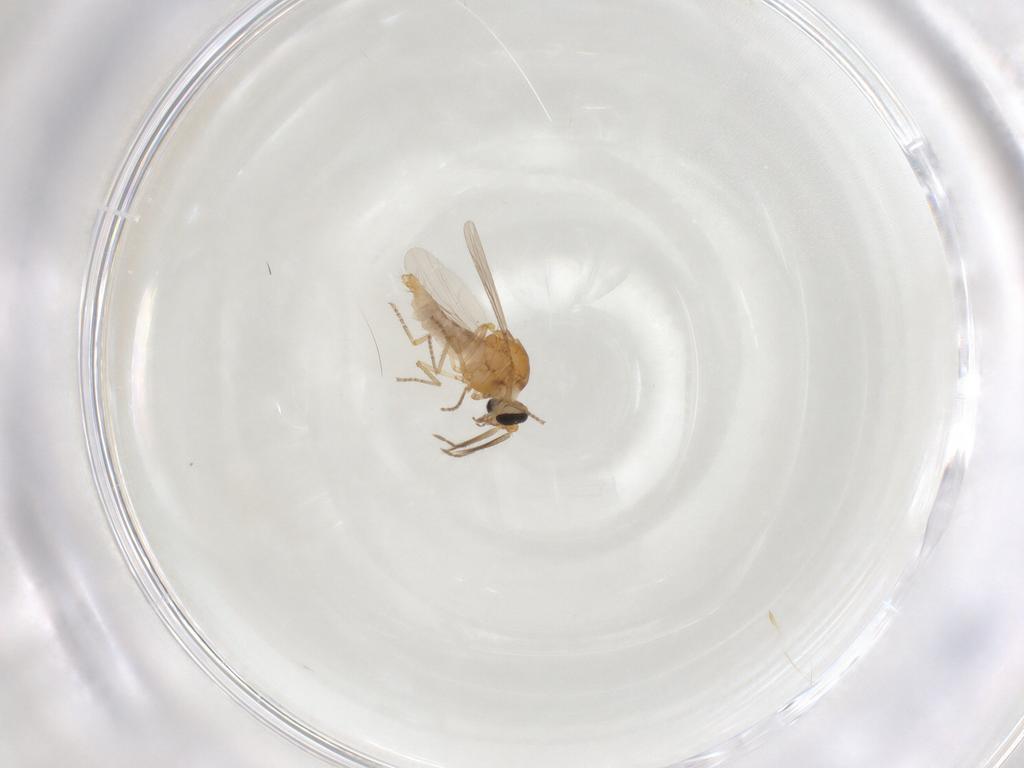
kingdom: Animalia
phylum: Arthropoda
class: Insecta
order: Diptera
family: Ceratopogonidae
